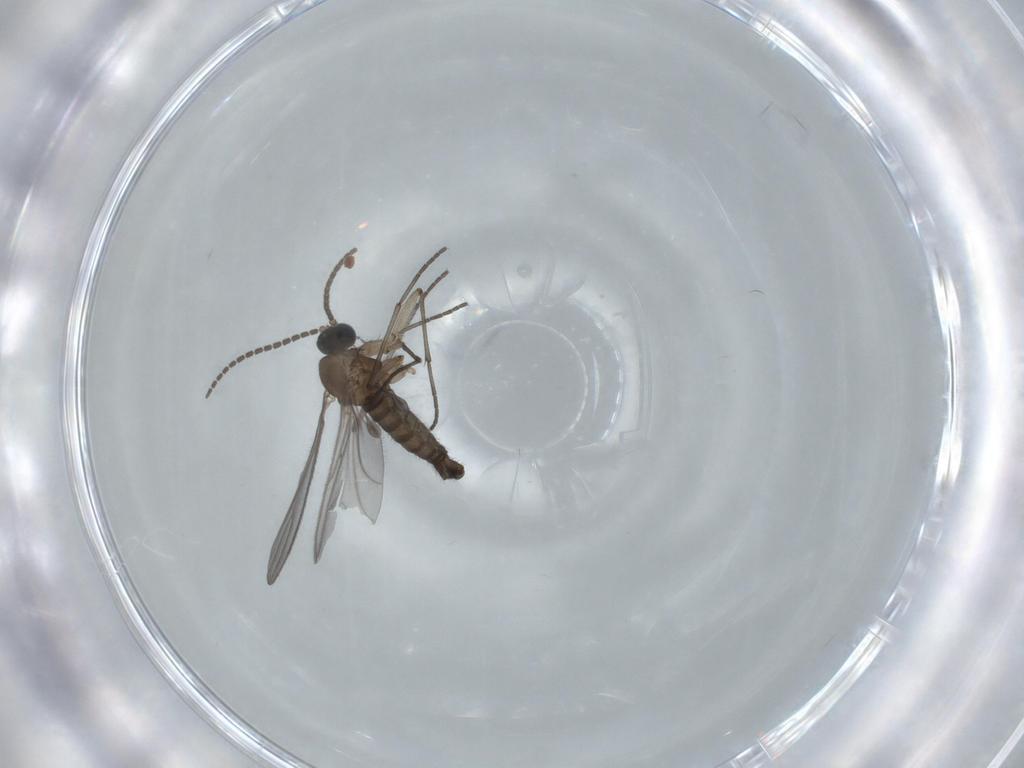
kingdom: Animalia
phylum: Arthropoda
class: Insecta
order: Diptera
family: Sciaridae
